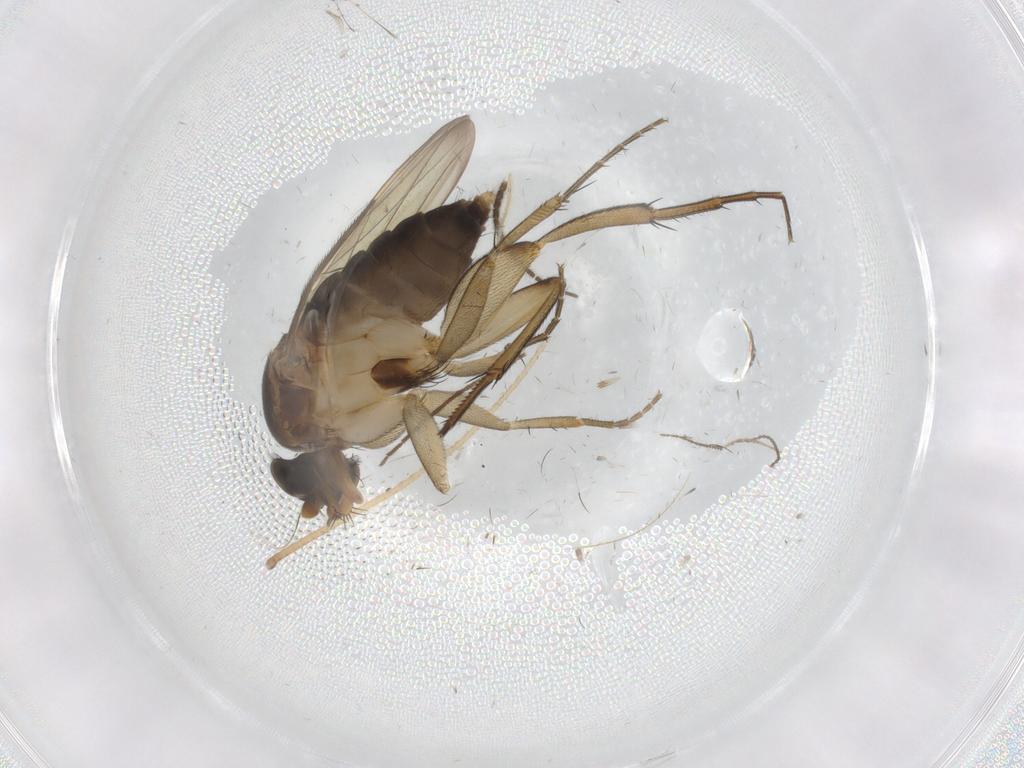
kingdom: Animalia
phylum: Arthropoda
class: Insecta
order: Diptera
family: Phoridae
